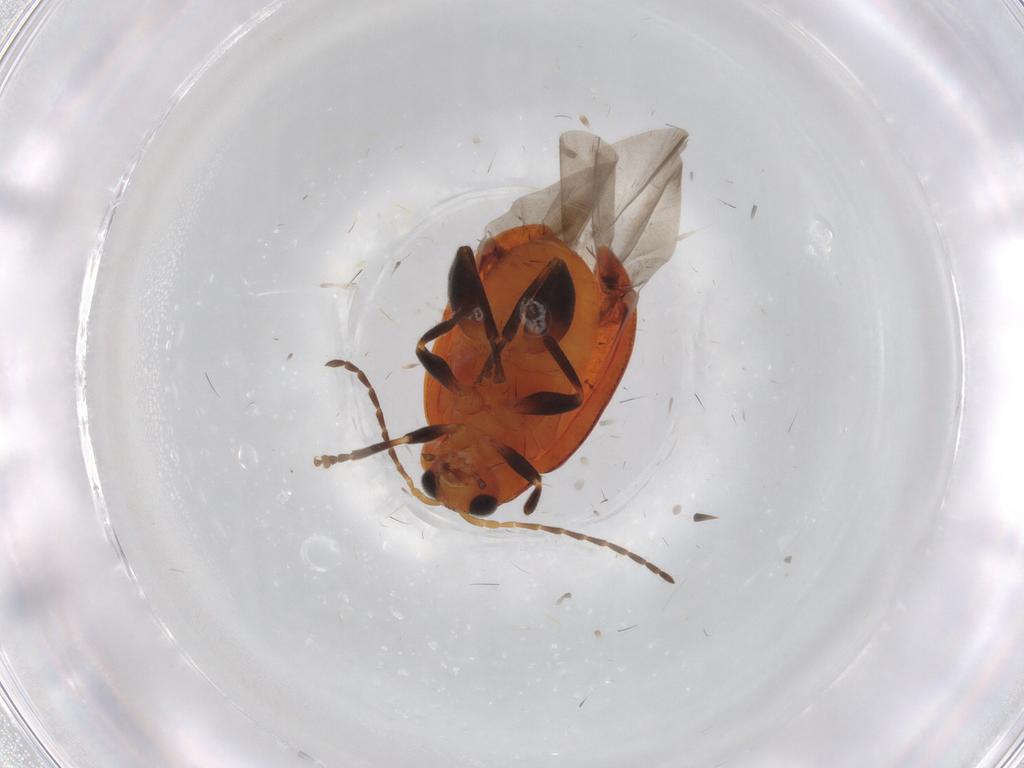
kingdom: Animalia
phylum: Arthropoda
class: Insecta
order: Coleoptera
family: Chrysomelidae
